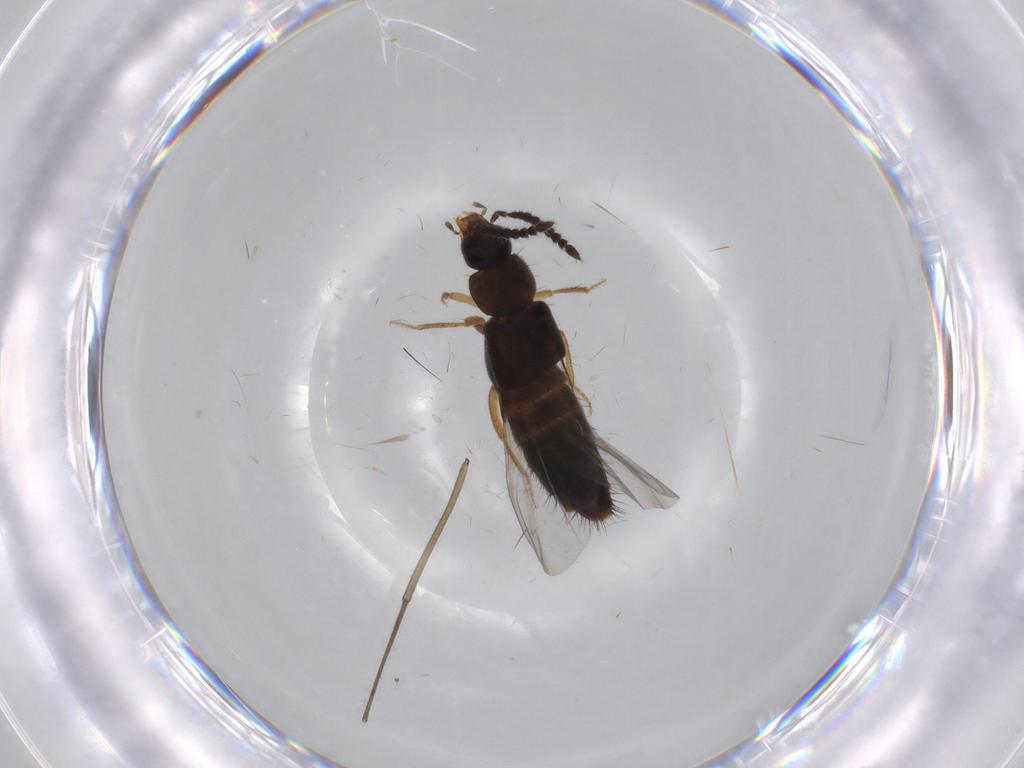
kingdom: Animalia
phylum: Arthropoda
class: Insecta
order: Coleoptera
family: Staphylinidae
